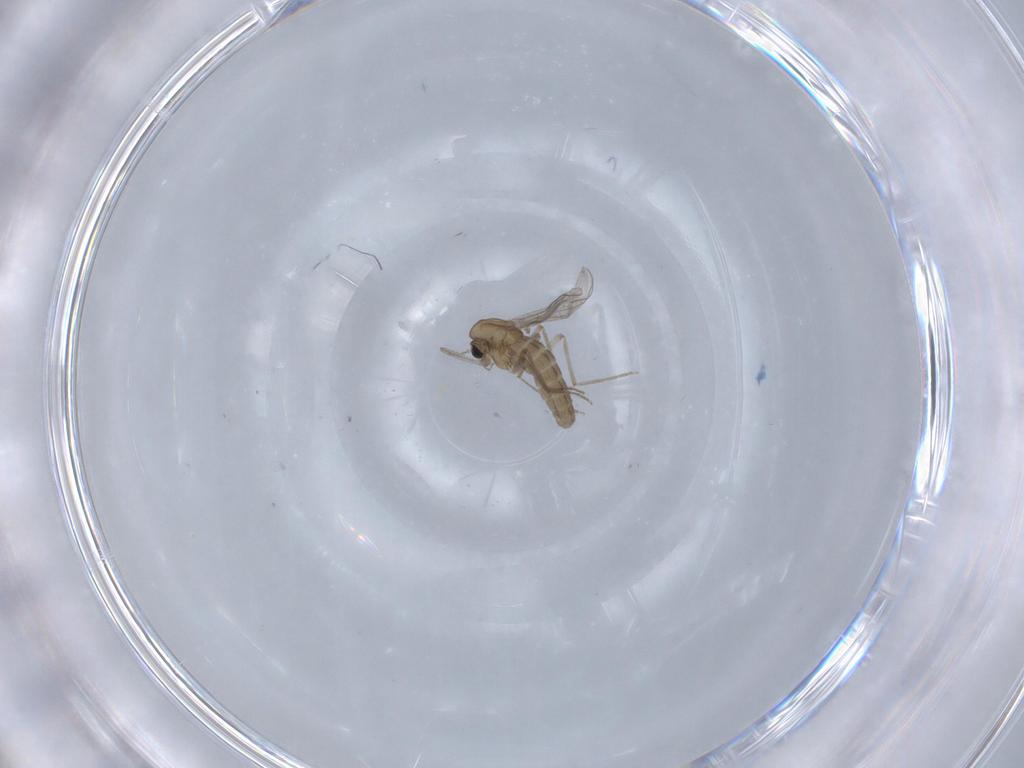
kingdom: Animalia
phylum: Arthropoda
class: Insecta
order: Diptera
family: Chironomidae
